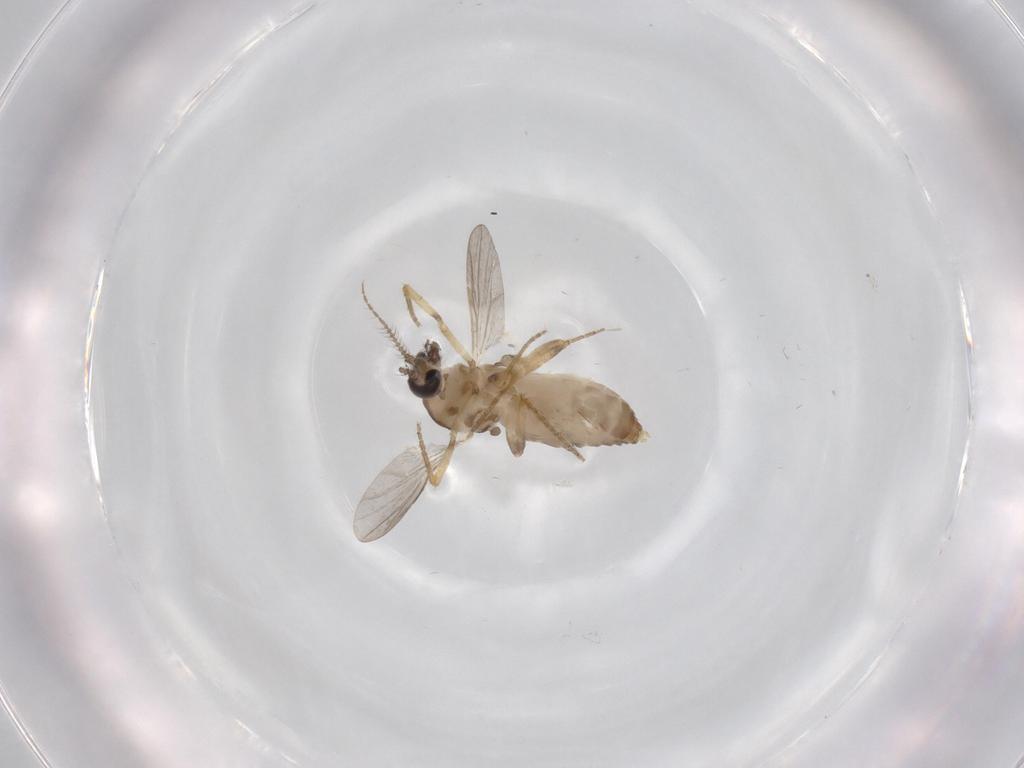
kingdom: Animalia
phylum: Arthropoda
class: Insecta
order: Diptera
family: Ceratopogonidae
